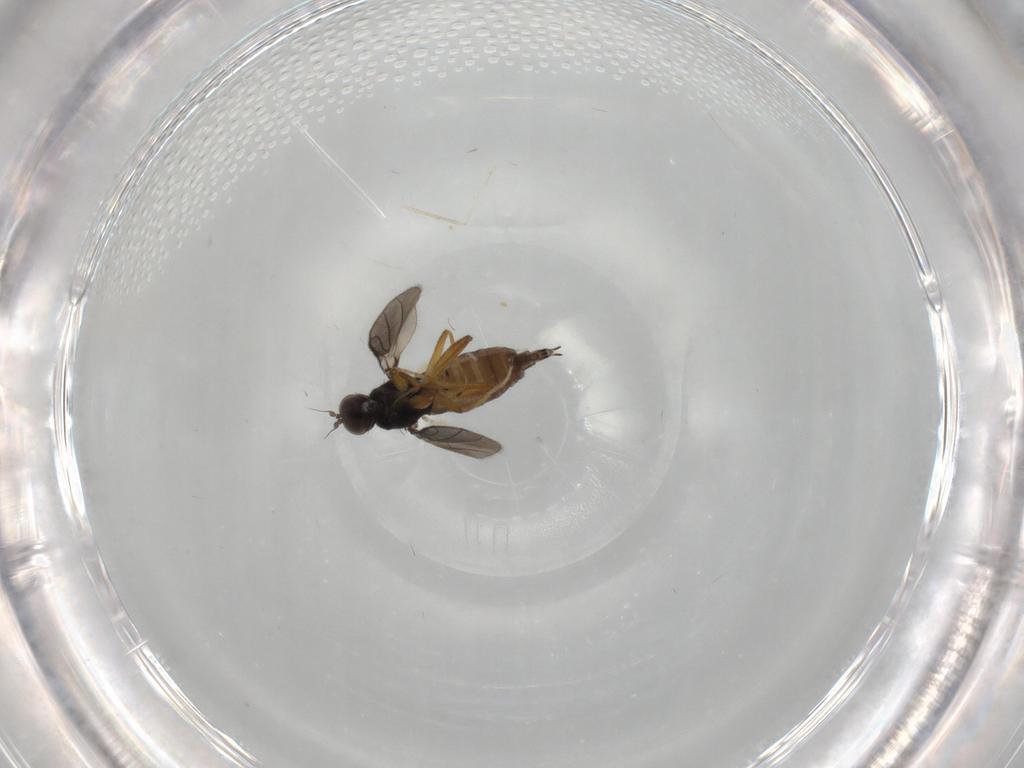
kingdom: Animalia
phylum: Arthropoda
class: Insecta
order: Diptera
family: Hybotidae
